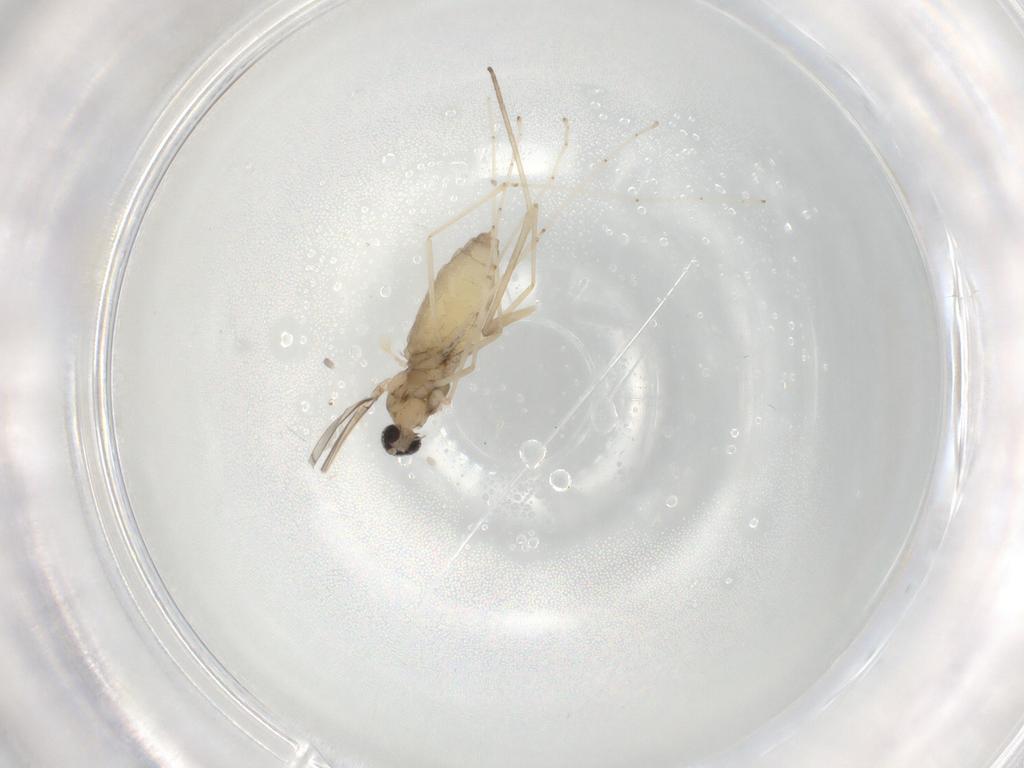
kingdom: Animalia
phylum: Arthropoda
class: Insecta
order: Diptera
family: Cecidomyiidae
